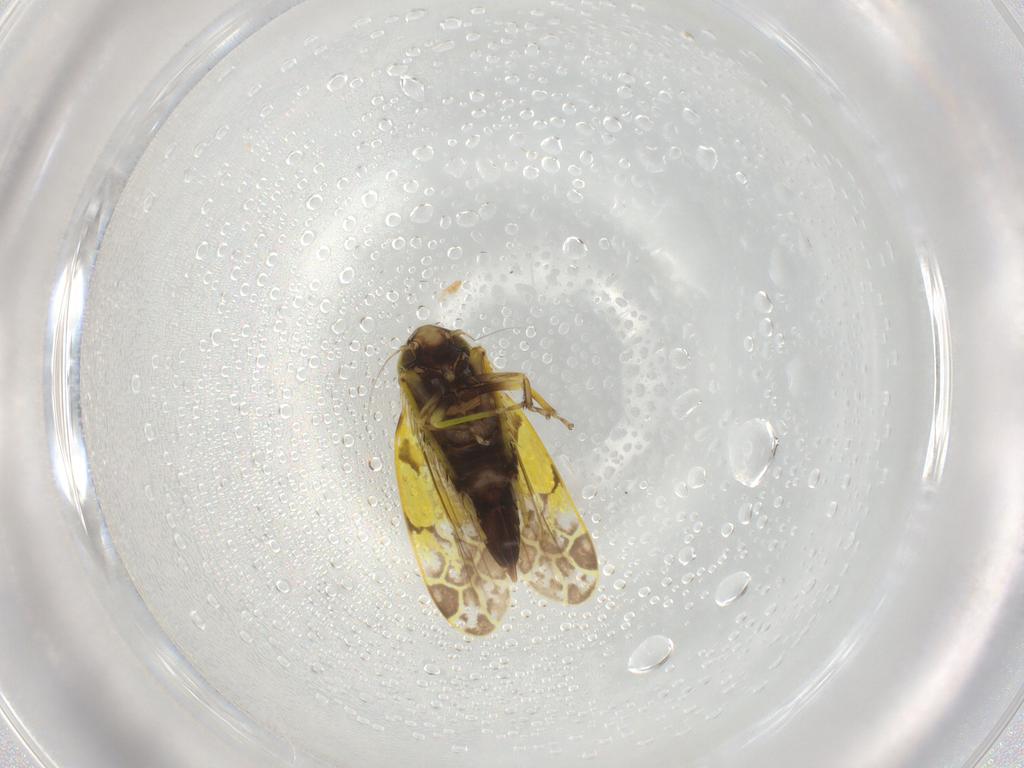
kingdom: Animalia
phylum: Arthropoda
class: Insecta
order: Hemiptera
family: Cicadellidae
